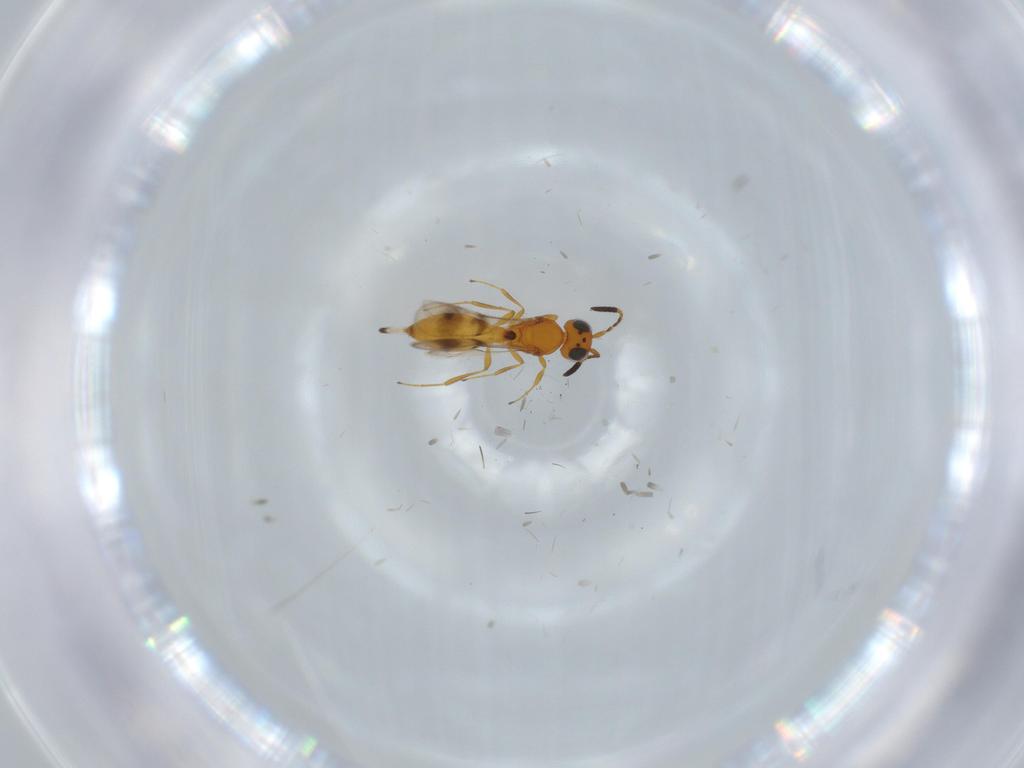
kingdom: Animalia
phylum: Arthropoda
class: Insecta
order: Hymenoptera
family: Scelionidae
